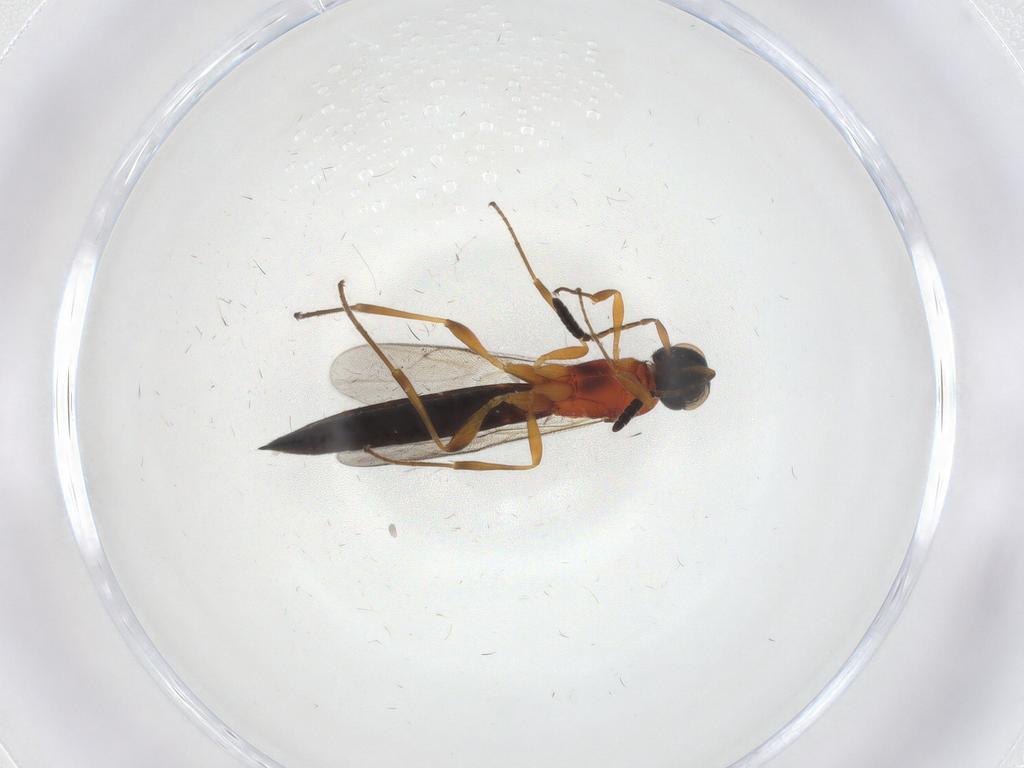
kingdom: Animalia
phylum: Arthropoda
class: Insecta
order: Hymenoptera
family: Scelionidae
